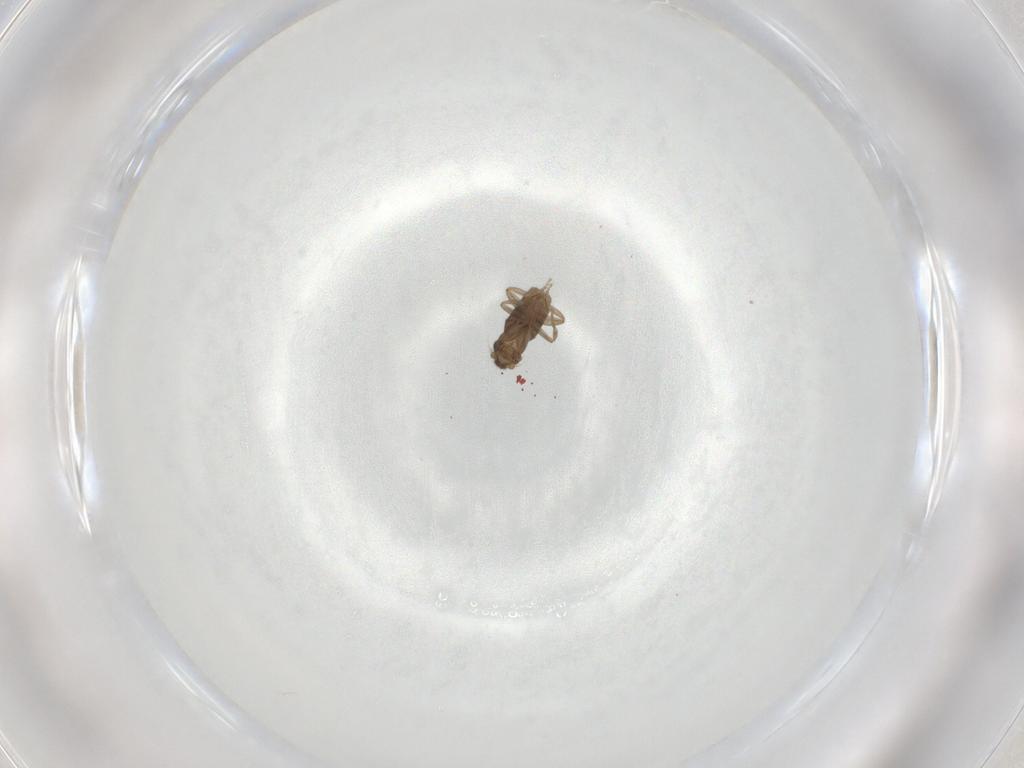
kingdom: Animalia
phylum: Arthropoda
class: Insecta
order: Diptera
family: Phoridae
